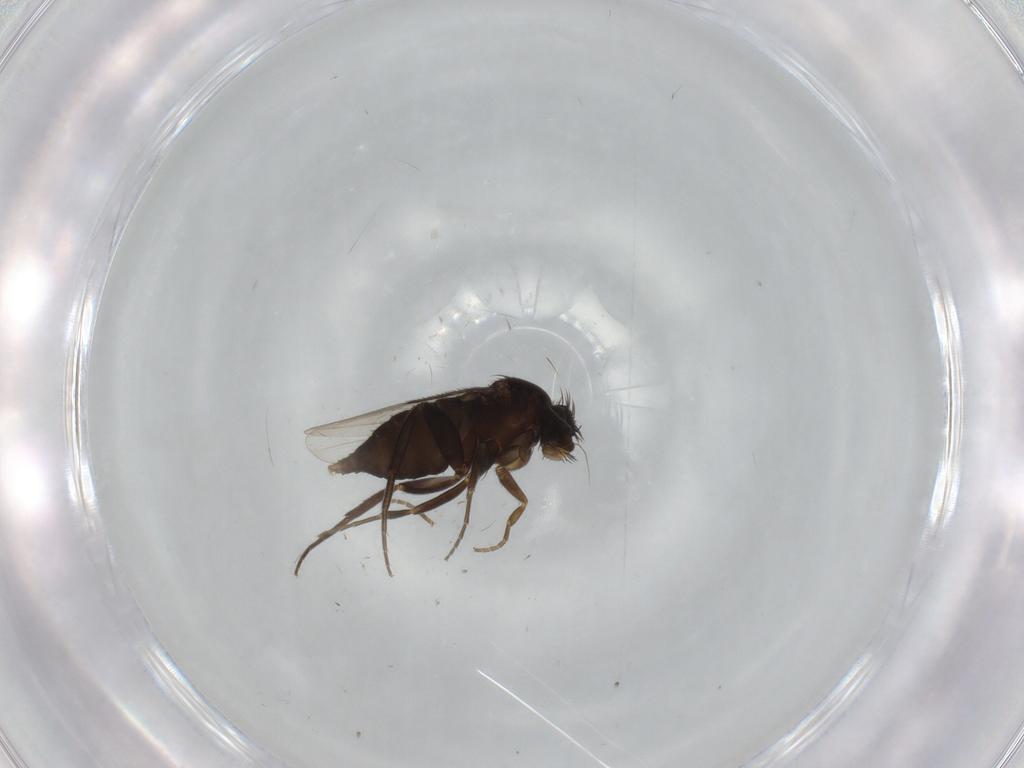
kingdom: Animalia
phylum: Arthropoda
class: Insecta
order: Diptera
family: Phoridae
